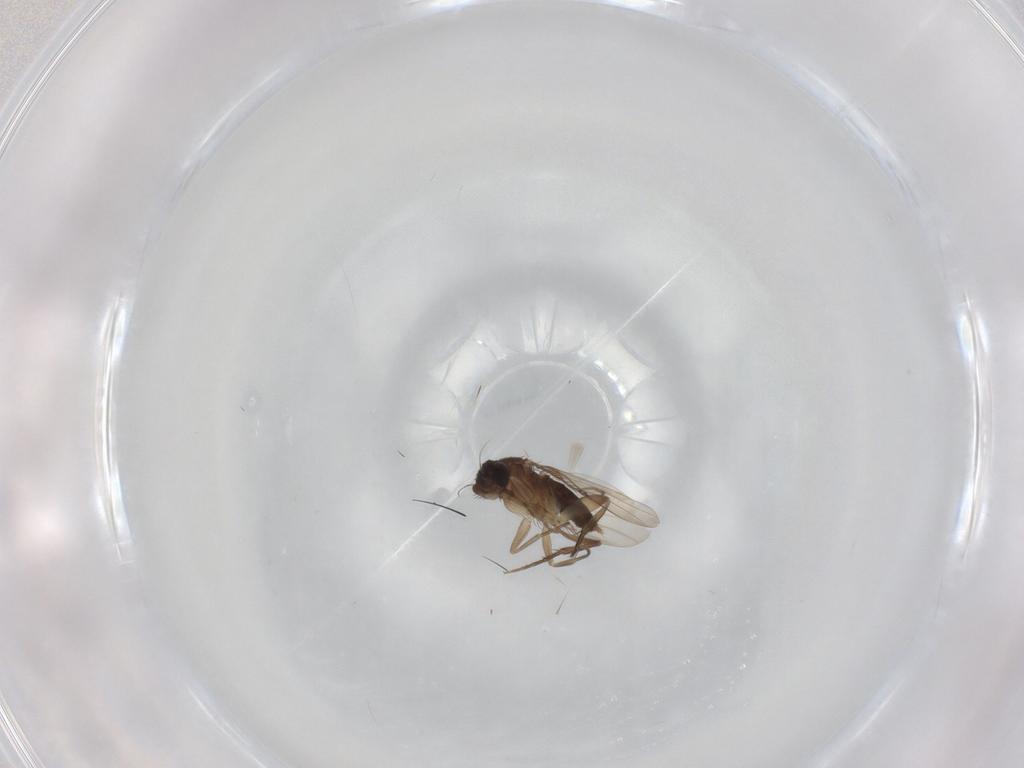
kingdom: Animalia
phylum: Arthropoda
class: Insecta
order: Diptera
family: Phoridae
